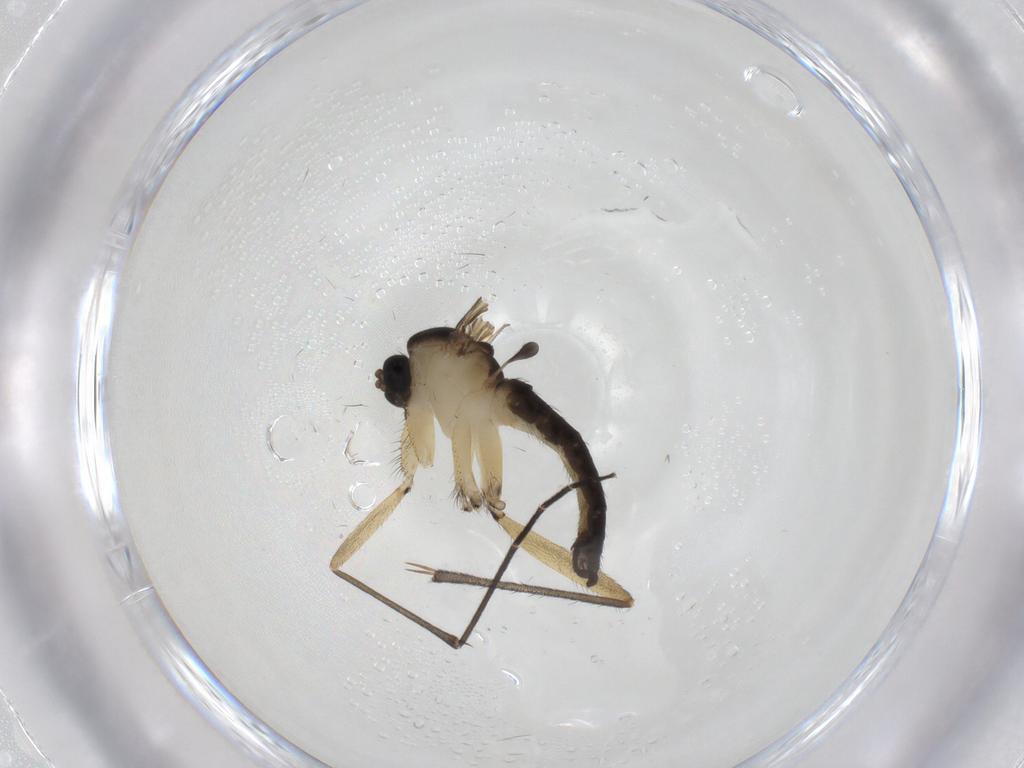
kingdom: Animalia
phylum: Arthropoda
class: Insecta
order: Diptera
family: Sciaridae
